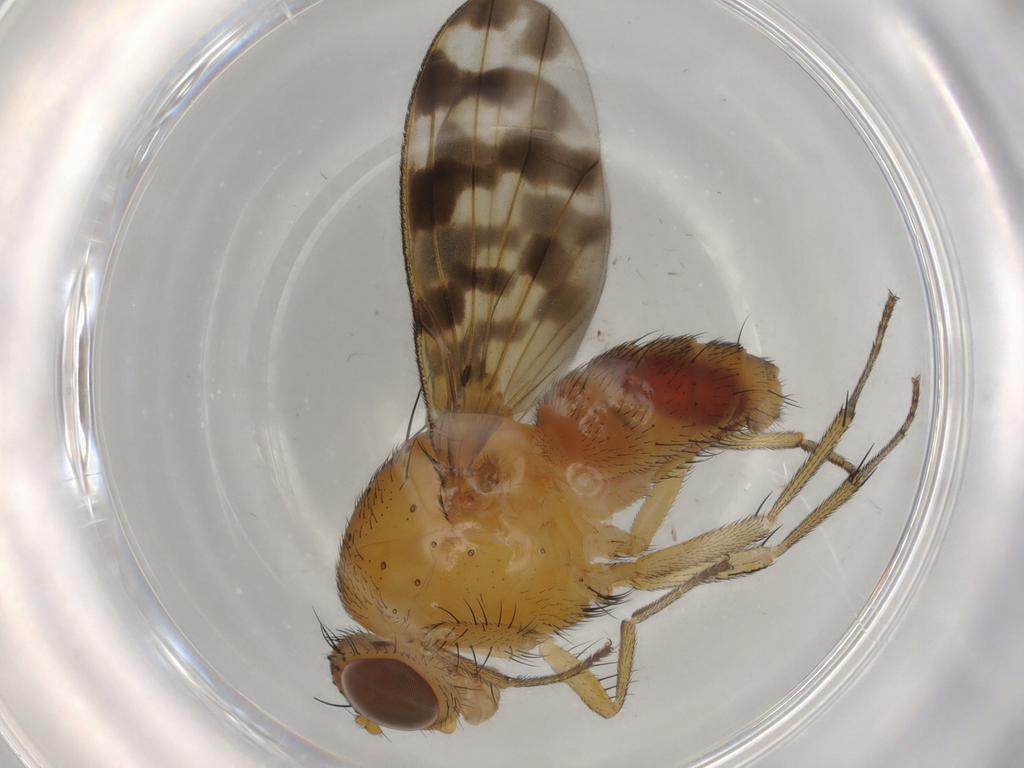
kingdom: Animalia
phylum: Arthropoda
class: Insecta
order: Diptera
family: Cecidomyiidae
